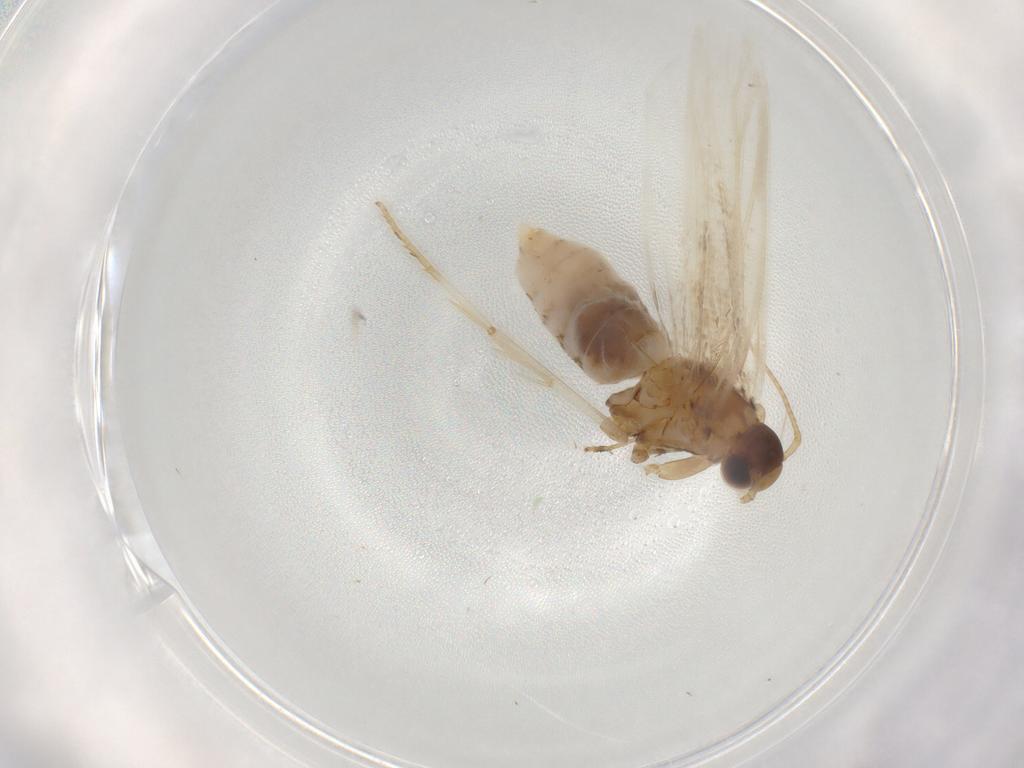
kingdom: Animalia
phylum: Arthropoda
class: Insecta
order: Lepidoptera
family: Gelechiidae
